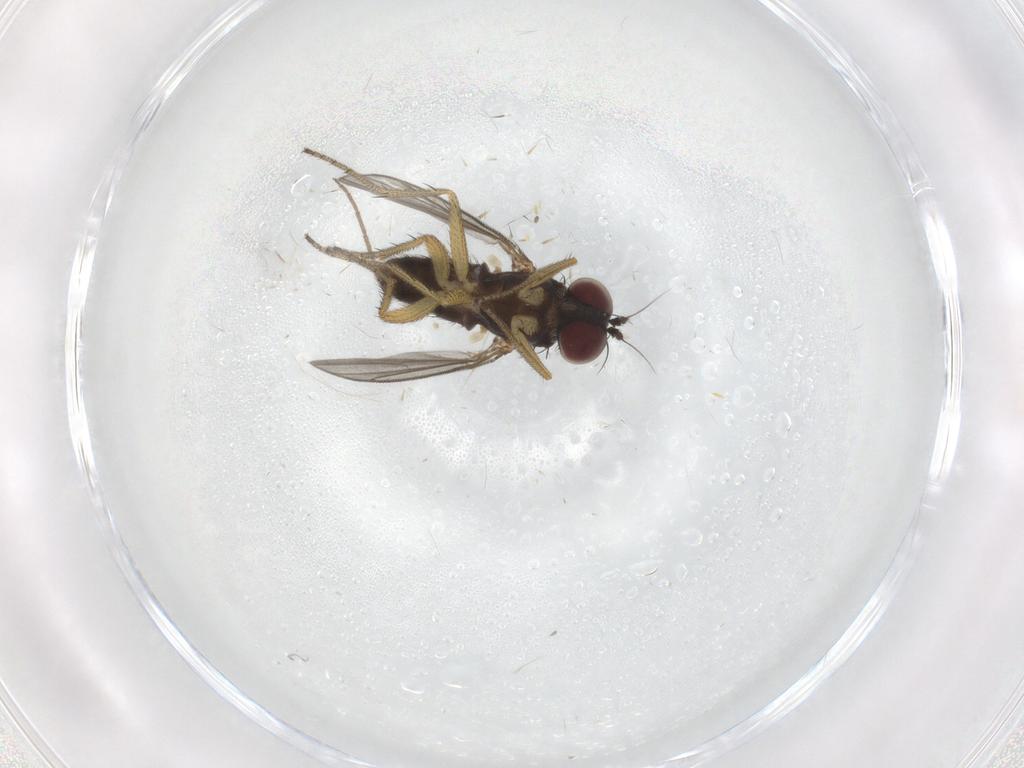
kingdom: Animalia
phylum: Arthropoda
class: Insecta
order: Diptera
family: Dolichopodidae
